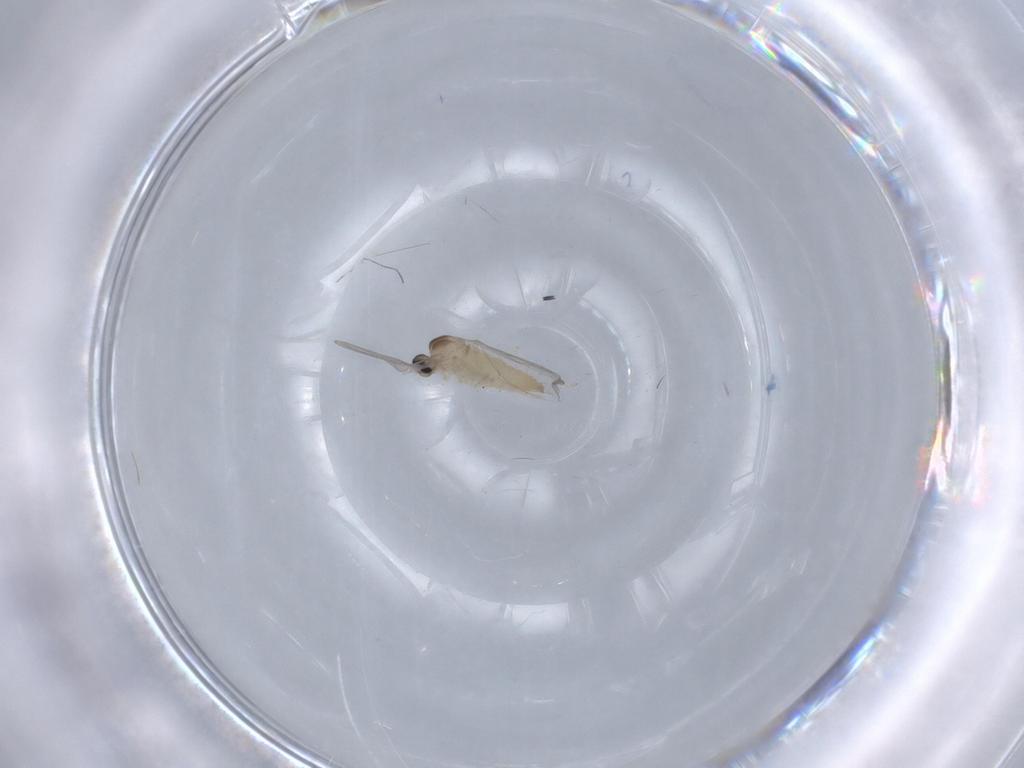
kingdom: Animalia
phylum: Arthropoda
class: Insecta
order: Diptera
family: Cecidomyiidae
